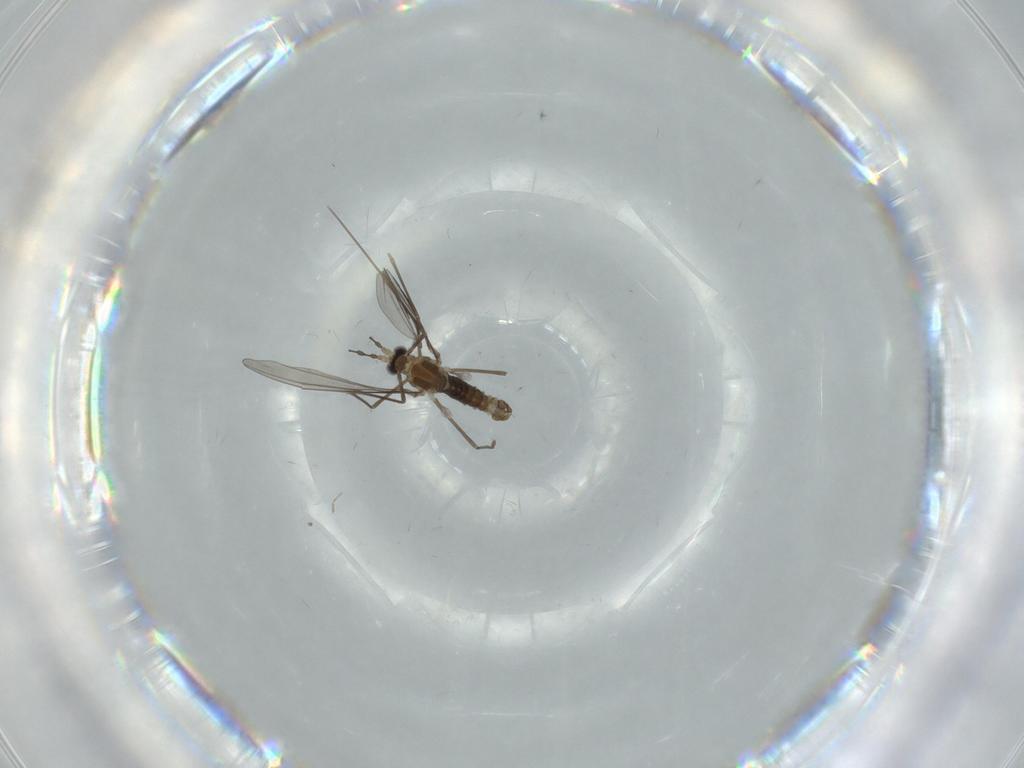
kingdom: Animalia
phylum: Arthropoda
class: Insecta
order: Diptera
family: Cecidomyiidae
